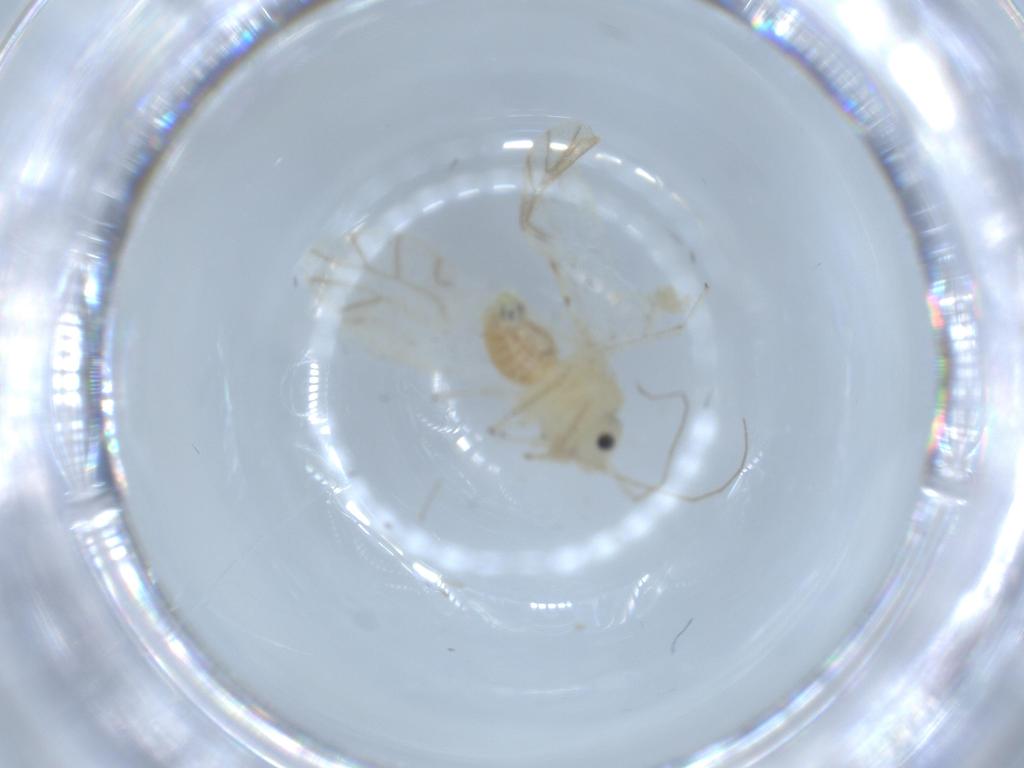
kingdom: Animalia
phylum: Arthropoda
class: Insecta
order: Psocodea
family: Caeciliusidae
